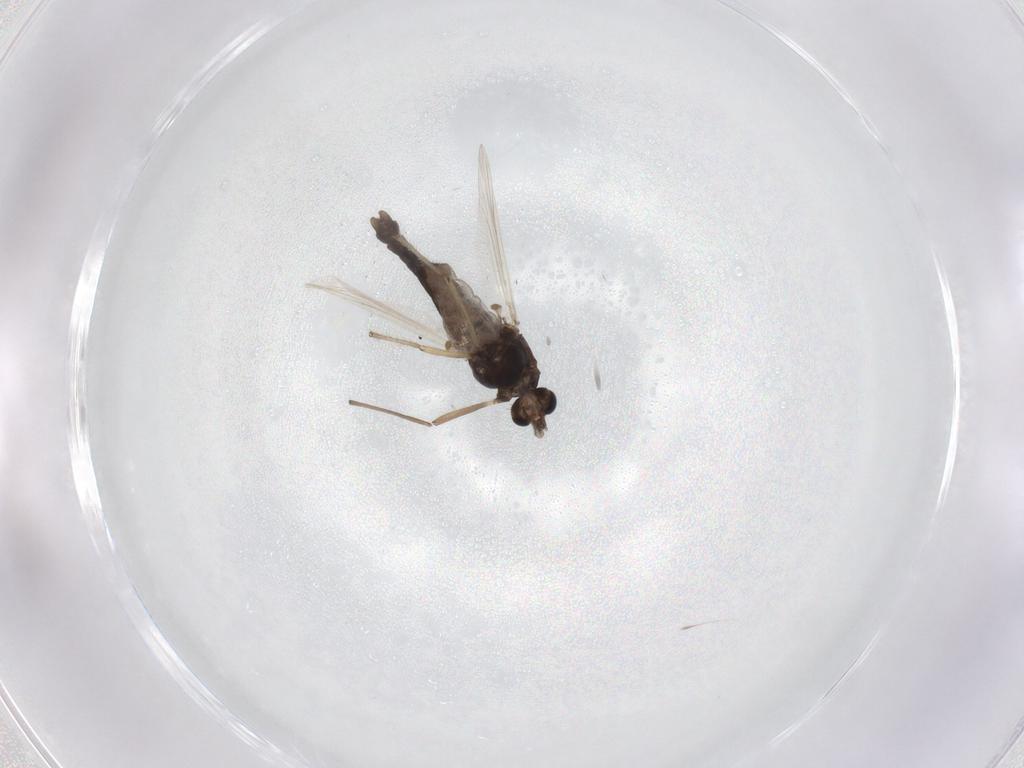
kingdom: Animalia
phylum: Arthropoda
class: Insecta
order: Diptera
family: Chironomidae
